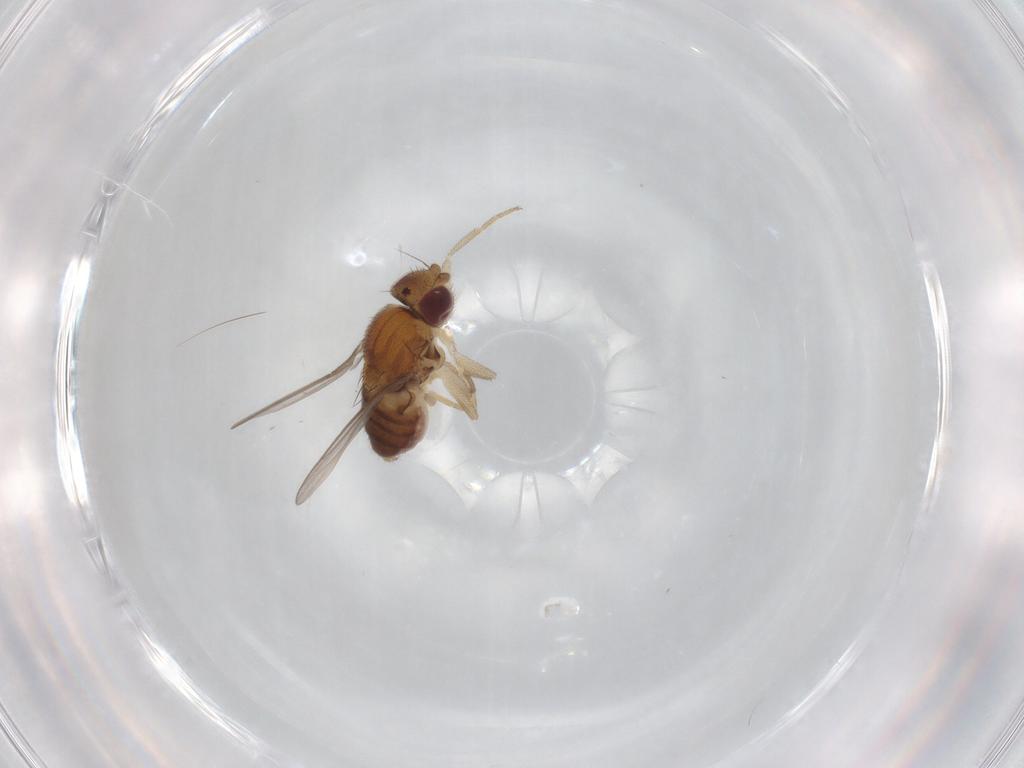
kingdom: Animalia
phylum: Arthropoda
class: Insecta
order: Diptera
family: Chloropidae
